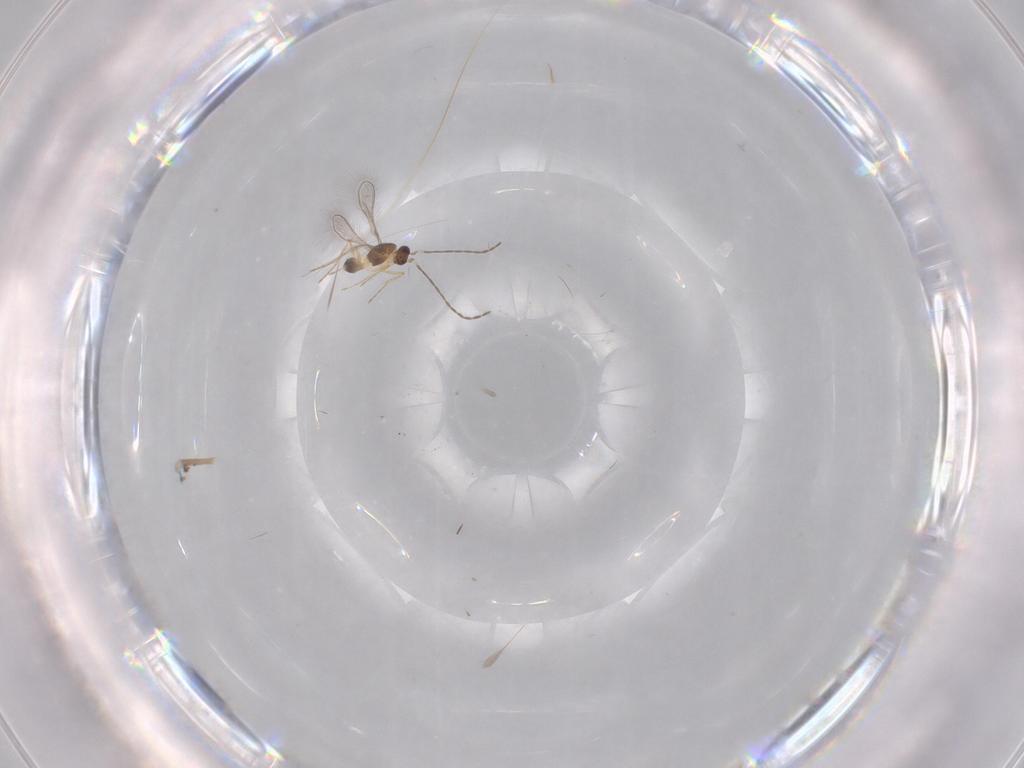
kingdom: Animalia
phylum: Arthropoda
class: Insecta
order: Hymenoptera
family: Mymaridae
